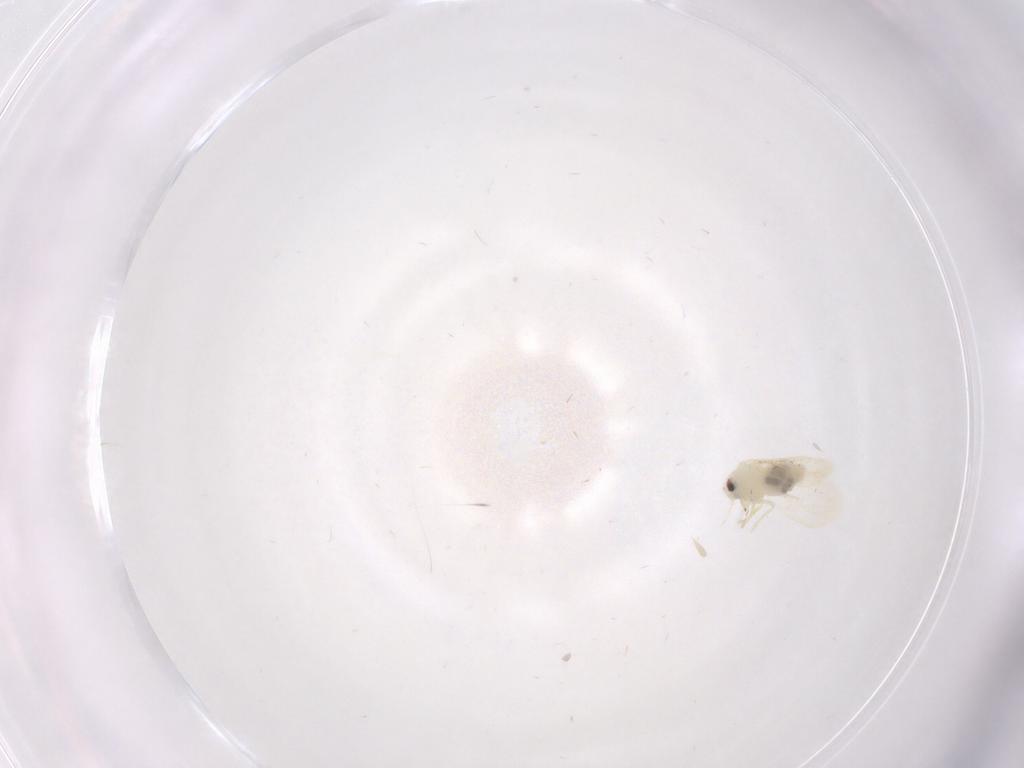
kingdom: Animalia
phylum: Arthropoda
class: Insecta
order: Hemiptera
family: Aleyrodidae
